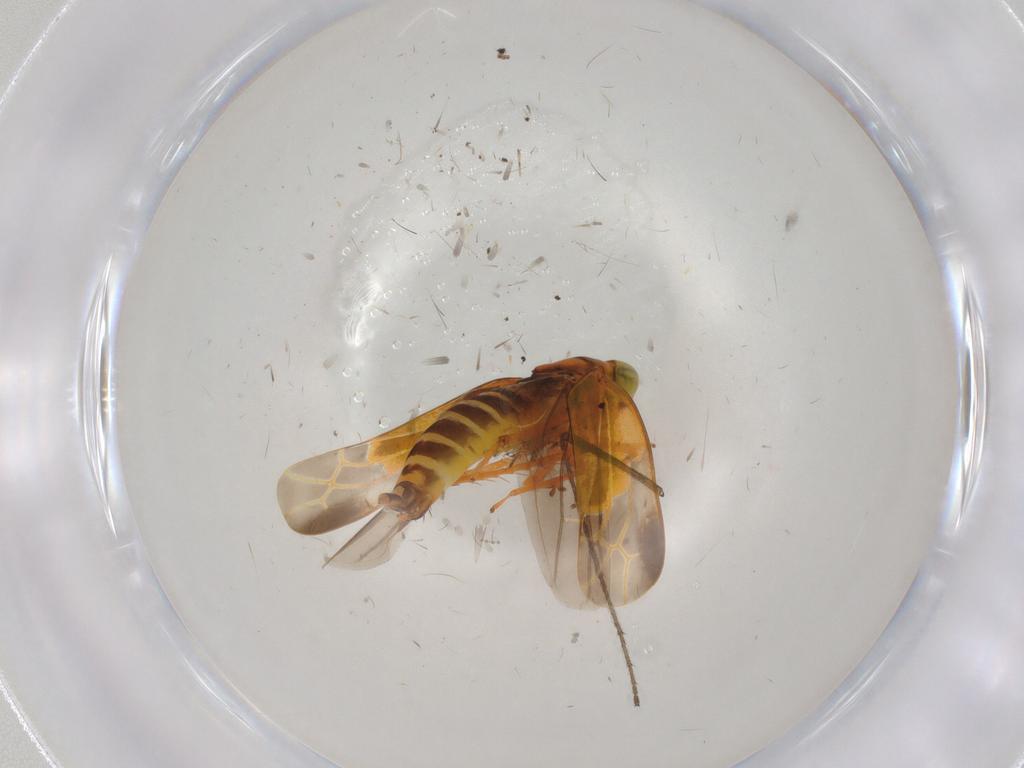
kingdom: Animalia
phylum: Arthropoda
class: Insecta
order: Hemiptera
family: Cicadellidae
